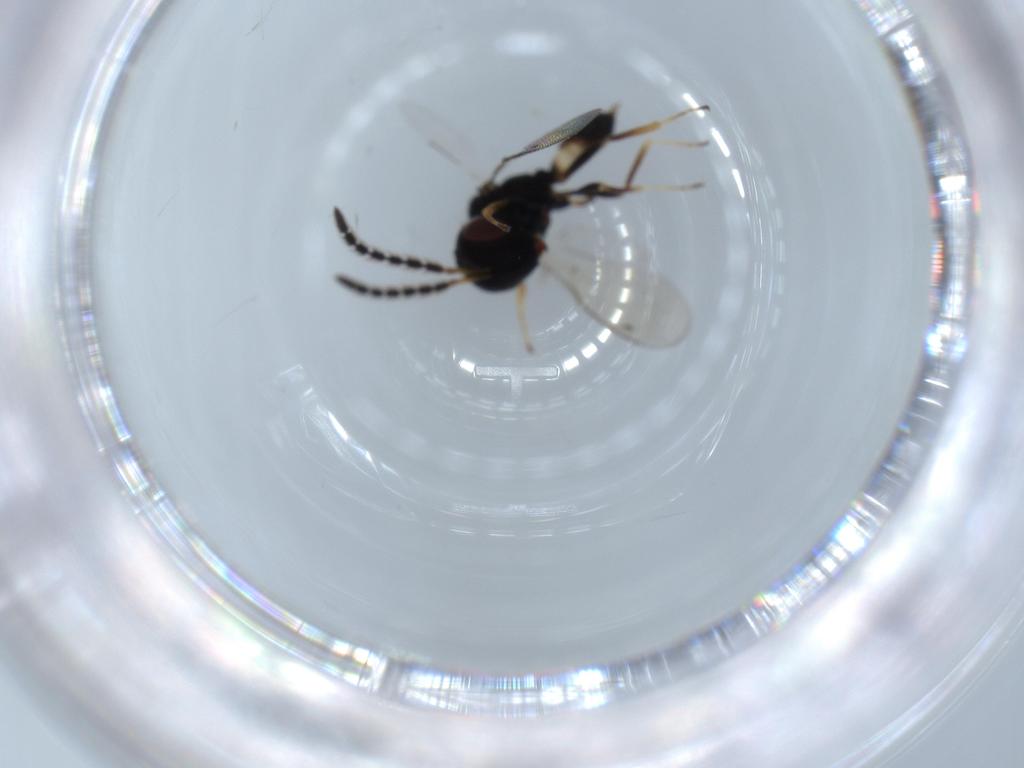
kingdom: Animalia
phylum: Arthropoda
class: Insecta
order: Hymenoptera
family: Pteromalidae
